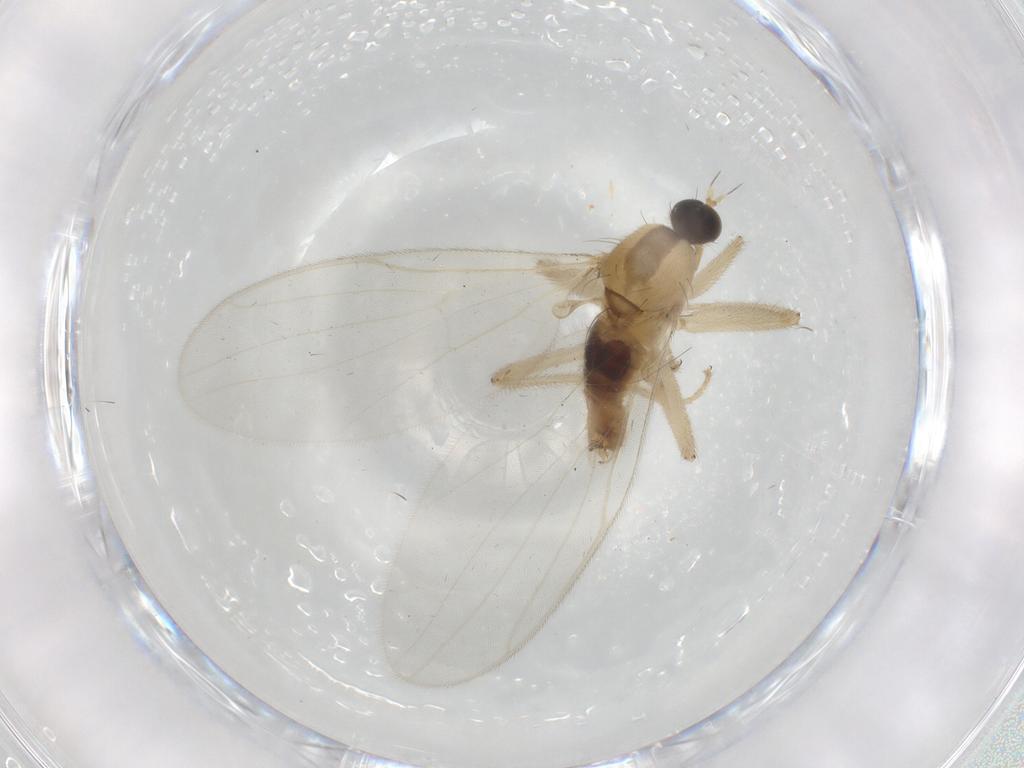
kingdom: Animalia
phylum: Arthropoda
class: Insecta
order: Diptera
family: Hybotidae
